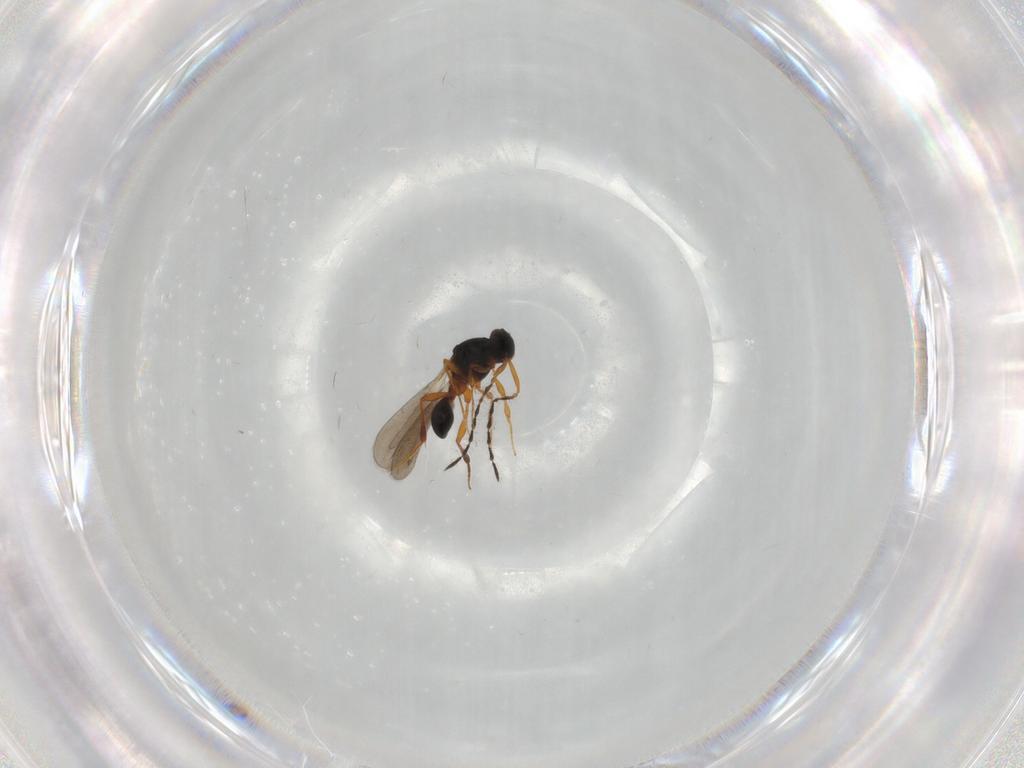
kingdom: Animalia
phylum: Arthropoda
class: Insecta
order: Hymenoptera
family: Platygastridae
